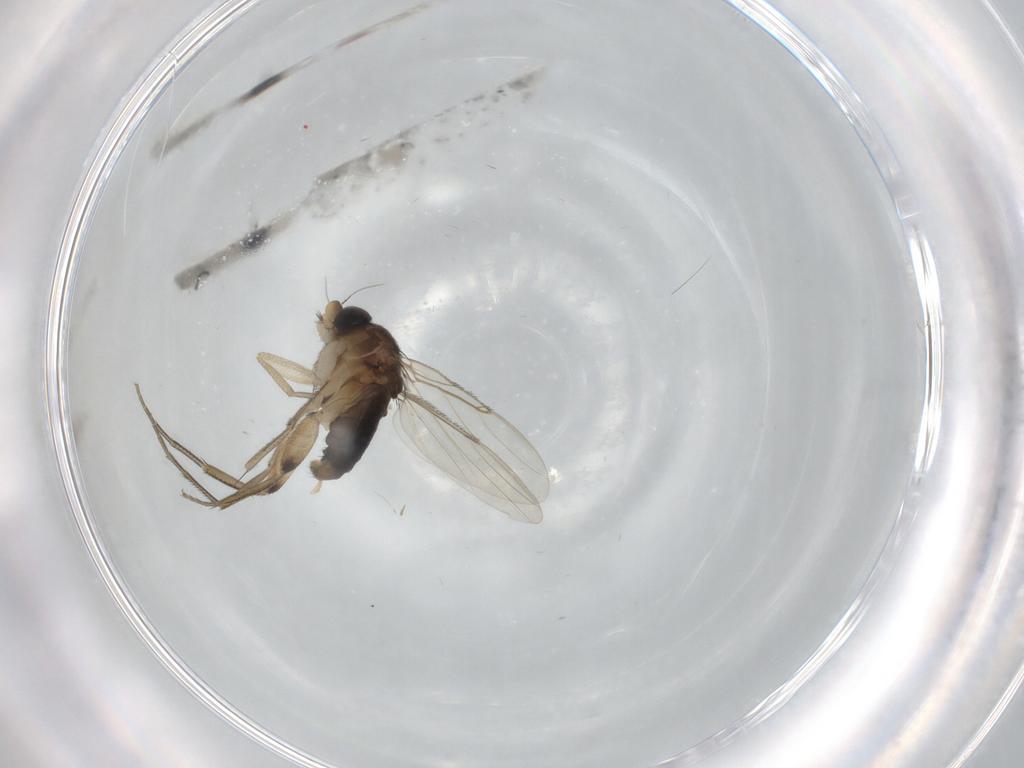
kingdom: Animalia
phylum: Arthropoda
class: Insecta
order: Diptera
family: Phoridae
